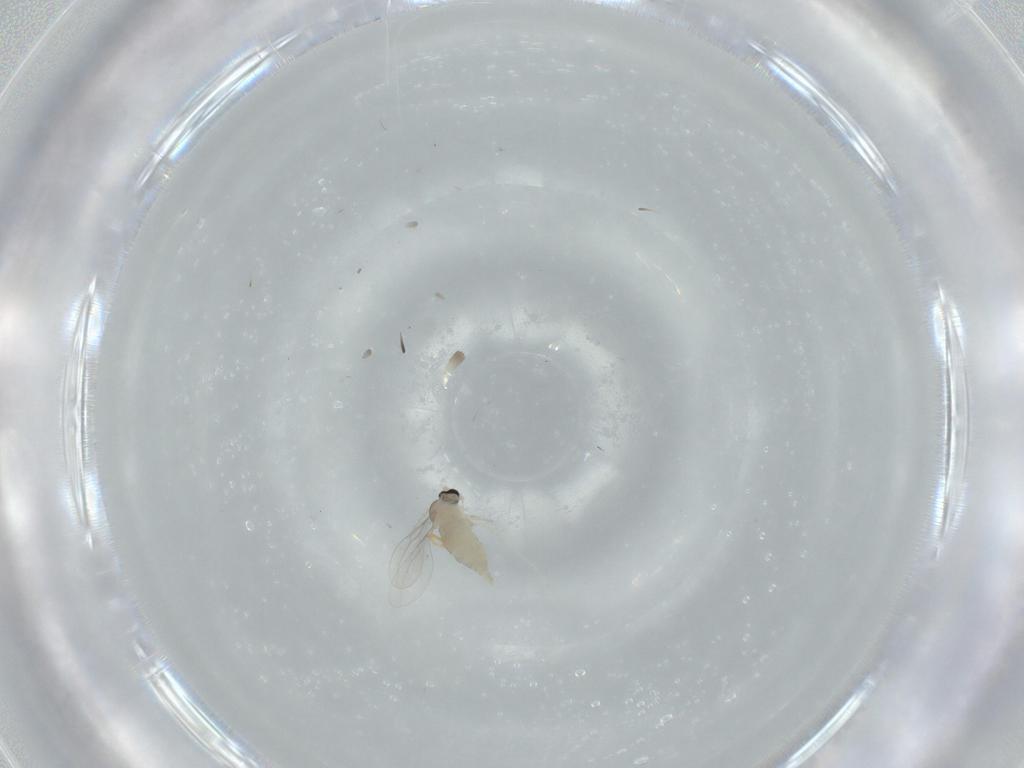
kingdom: Animalia
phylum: Arthropoda
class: Insecta
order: Diptera
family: Cecidomyiidae
